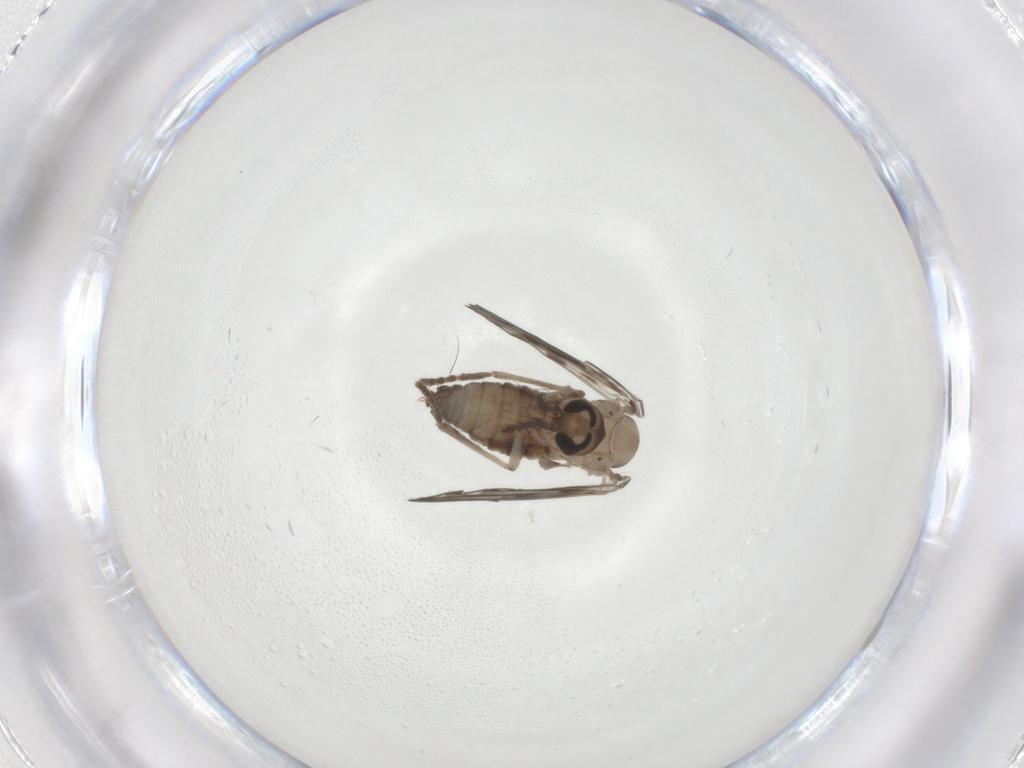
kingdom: Animalia
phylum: Arthropoda
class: Insecta
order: Diptera
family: Psychodidae
